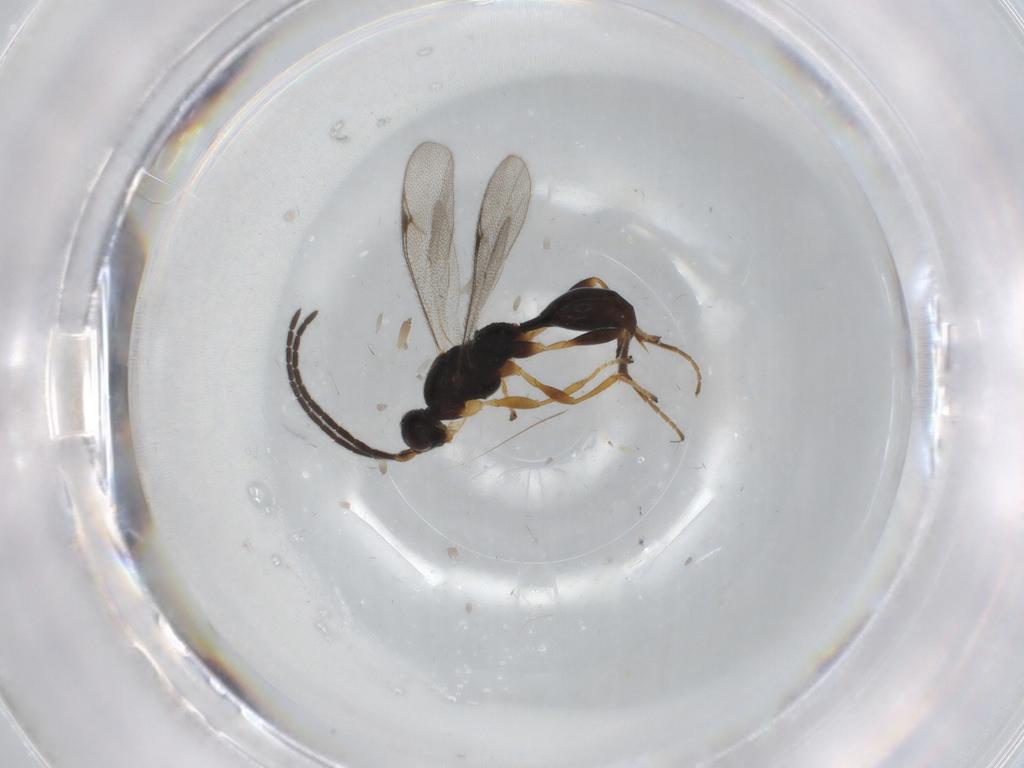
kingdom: Animalia
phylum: Arthropoda
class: Insecta
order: Hymenoptera
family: Proctotrupidae
